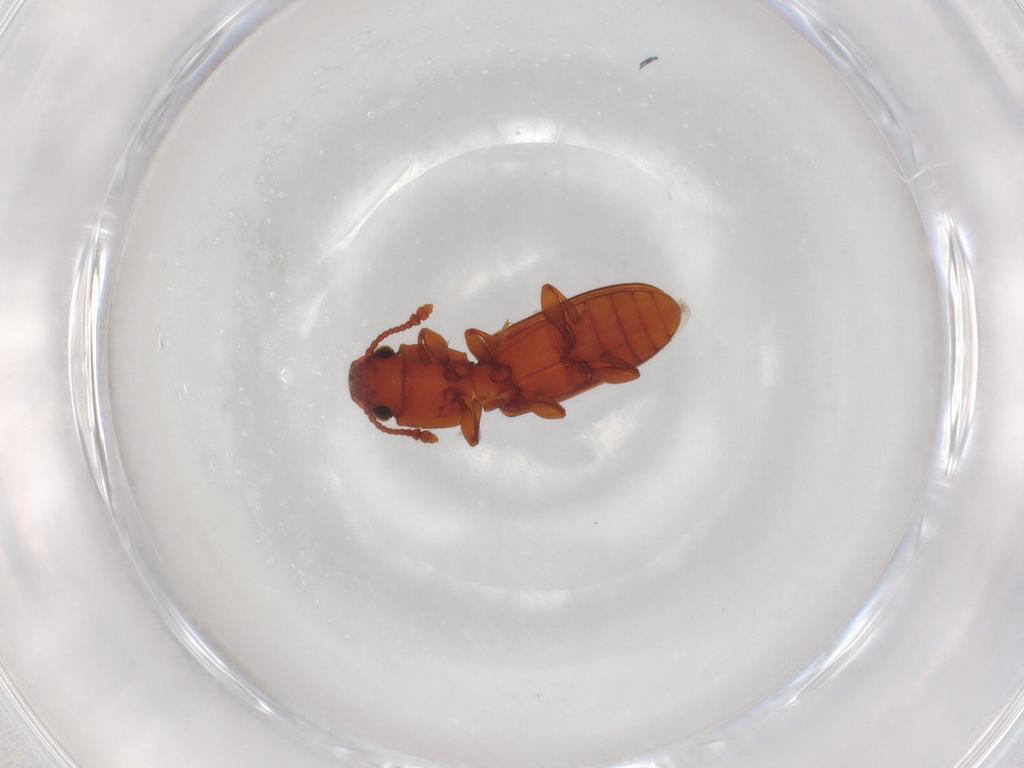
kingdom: Animalia
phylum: Arthropoda
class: Insecta
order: Coleoptera
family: Silvanidae
